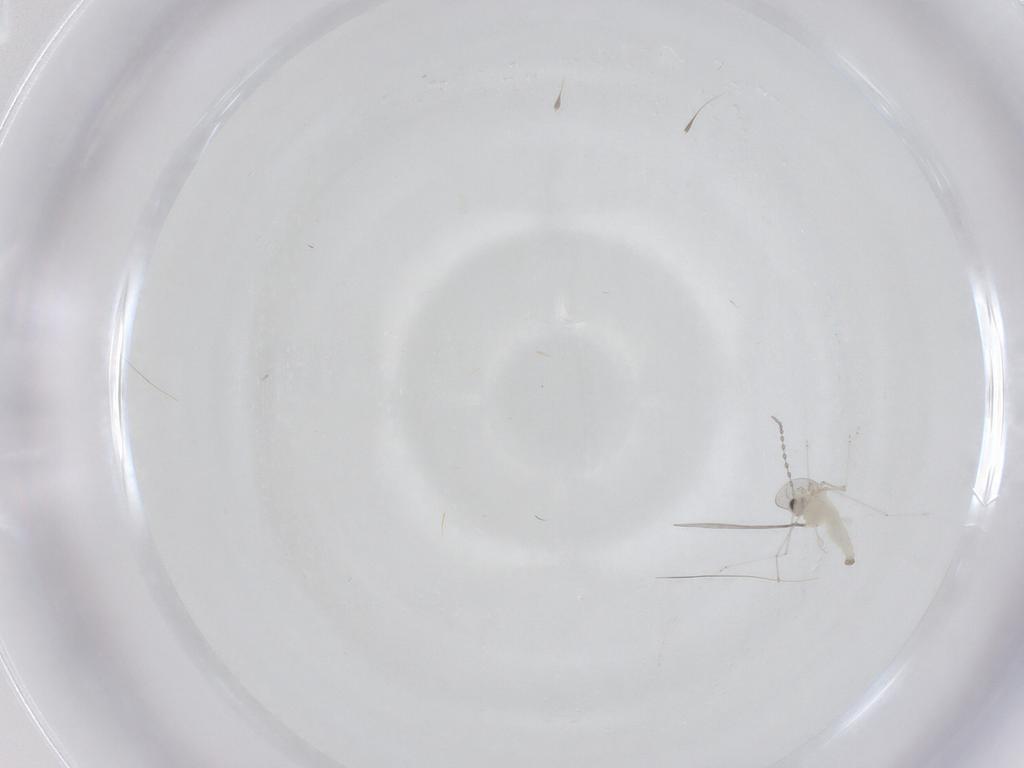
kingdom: Animalia
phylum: Arthropoda
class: Insecta
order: Diptera
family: Cecidomyiidae
